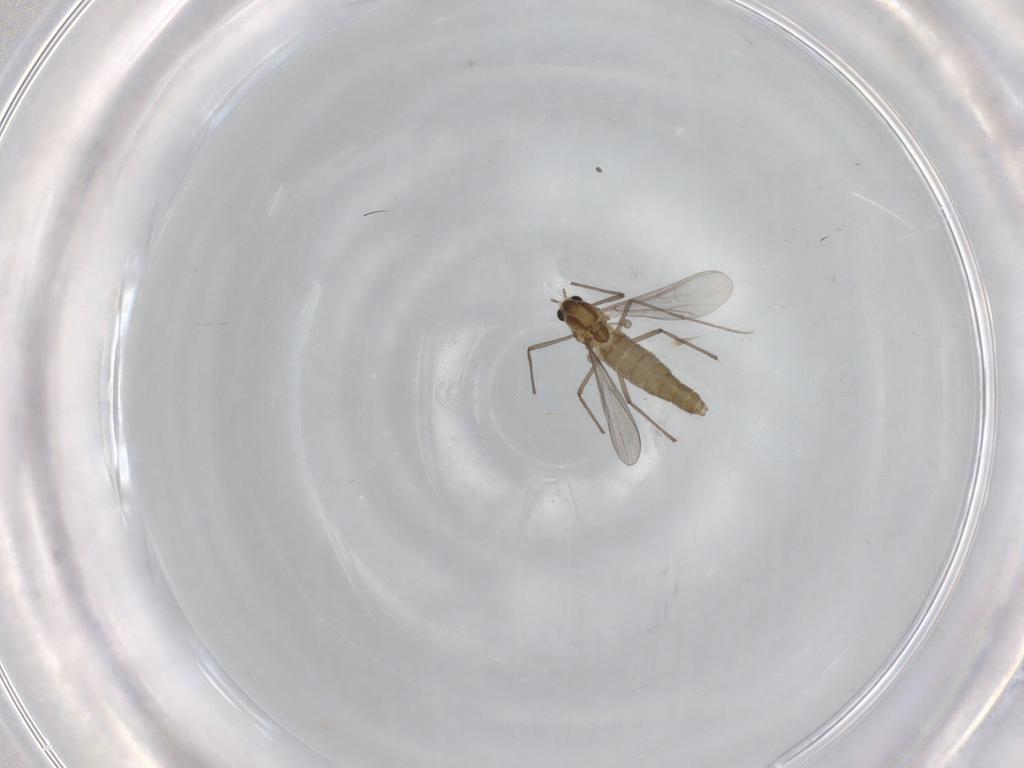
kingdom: Animalia
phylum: Arthropoda
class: Insecta
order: Diptera
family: Cecidomyiidae
